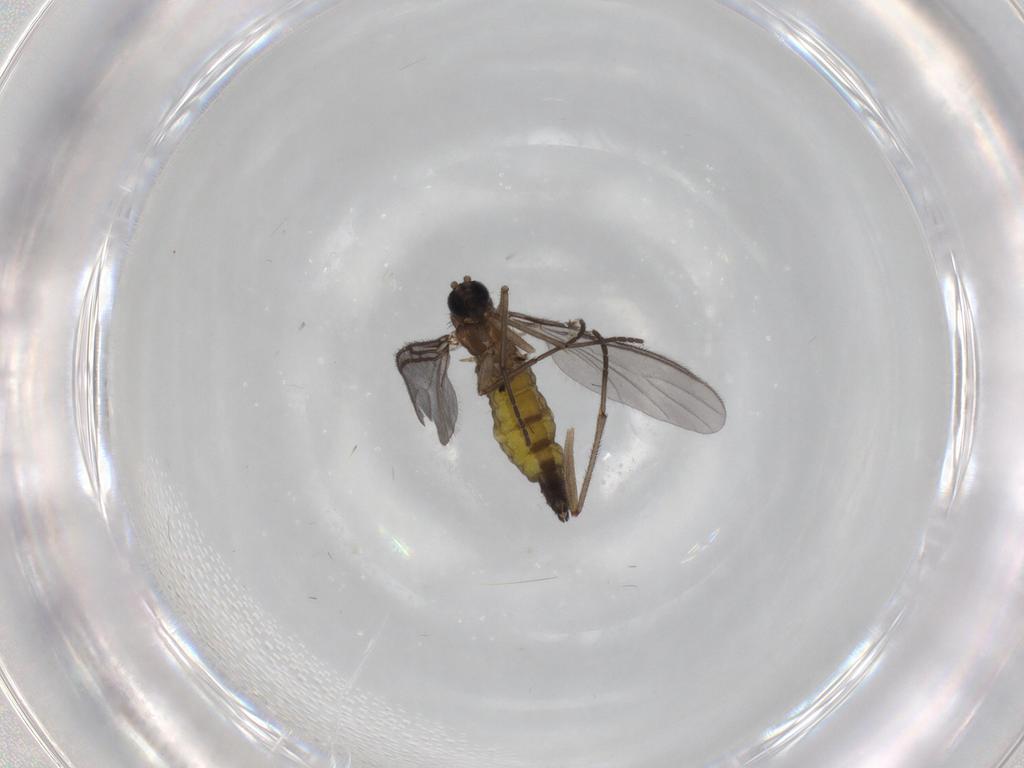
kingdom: Animalia
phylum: Arthropoda
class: Insecta
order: Diptera
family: Sciaridae
